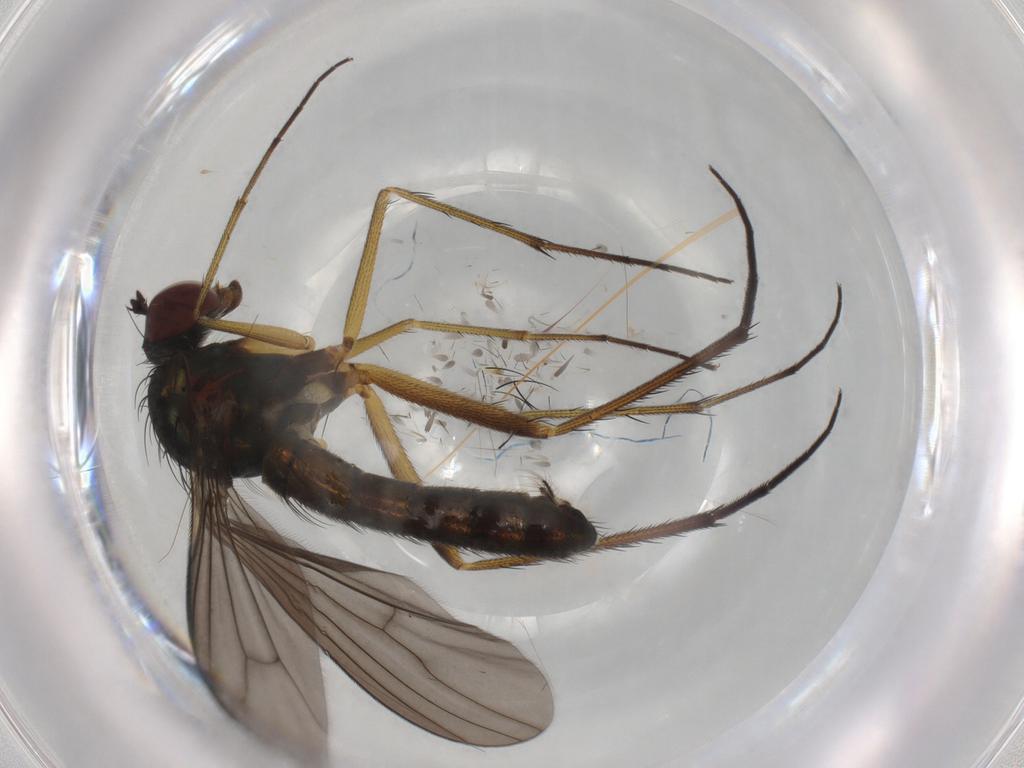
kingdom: Animalia
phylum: Arthropoda
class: Insecta
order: Diptera
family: Dolichopodidae
